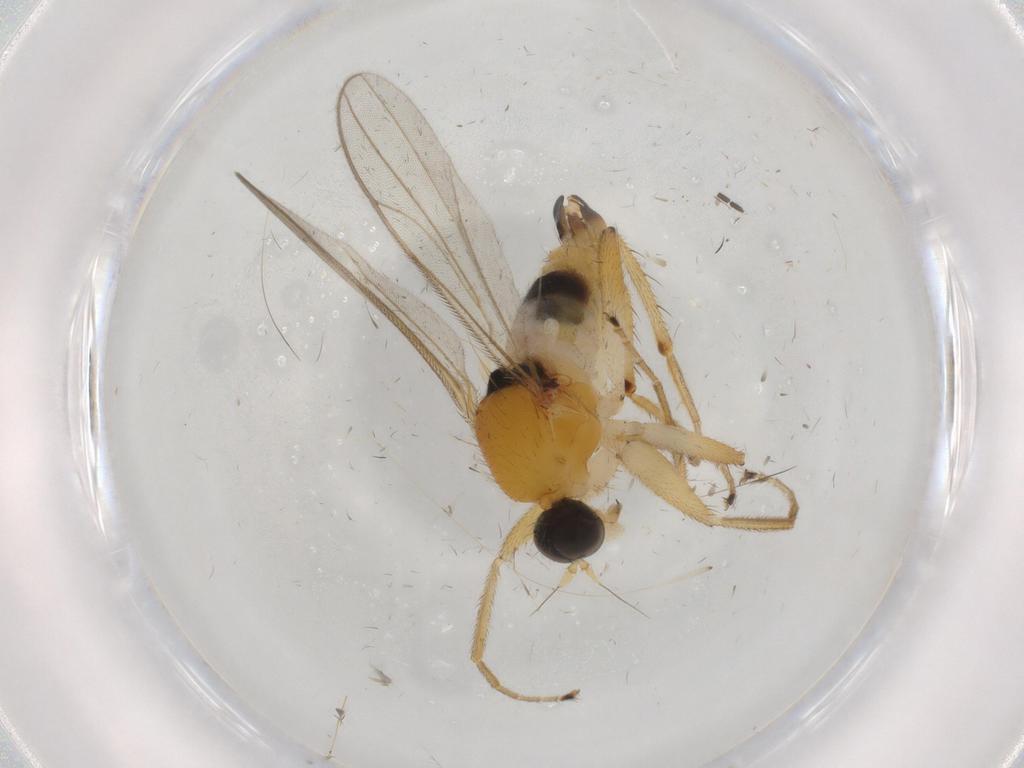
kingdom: Animalia
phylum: Arthropoda
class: Insecta
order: Diptera
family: Hybotidae
